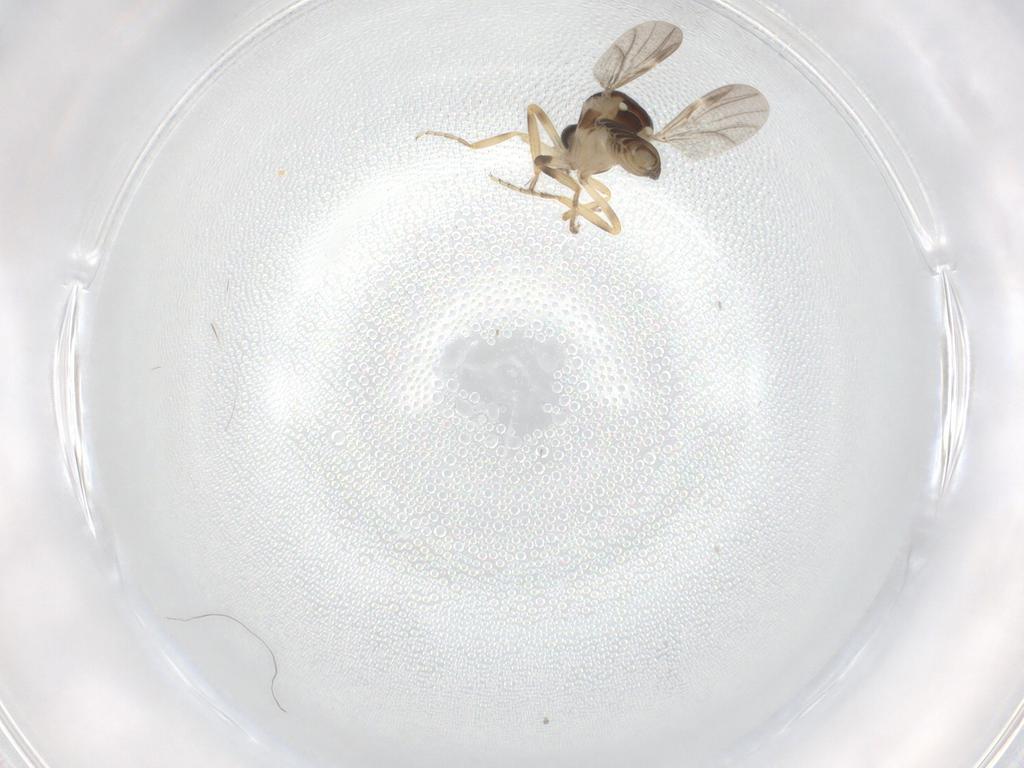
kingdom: Animalia
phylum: Arthropoda
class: Insecta
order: Diptera
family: Ceratopogonidae
